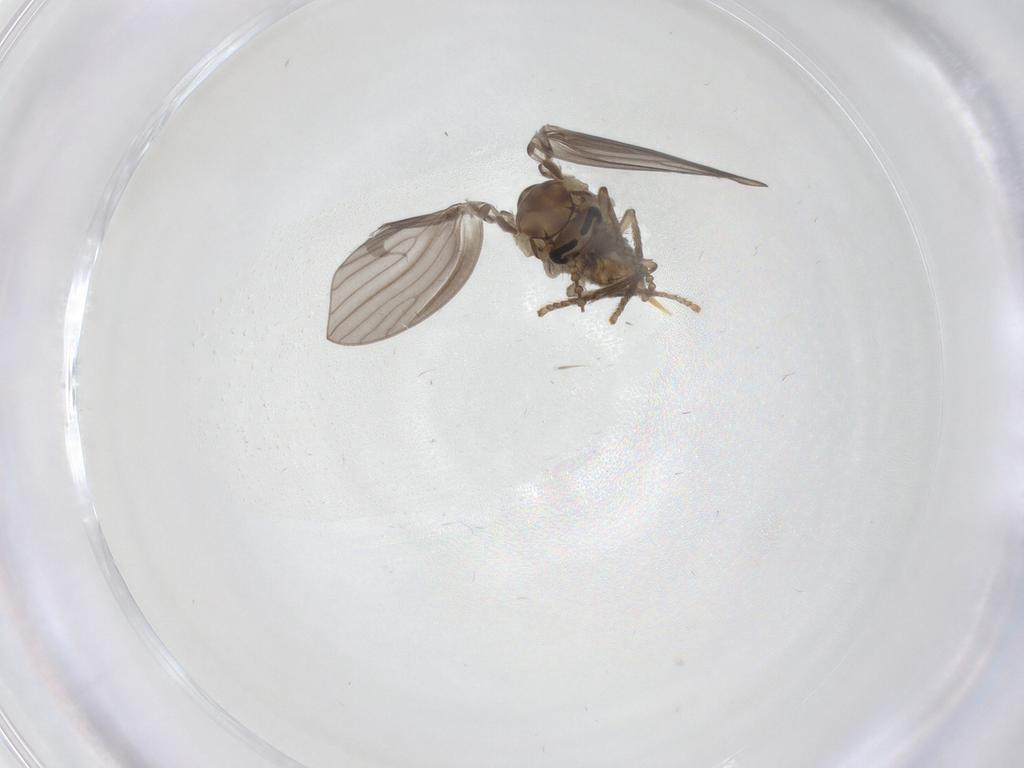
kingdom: Animalia
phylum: Arthropoda
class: Insecta
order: Diptera
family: Psychodidae
